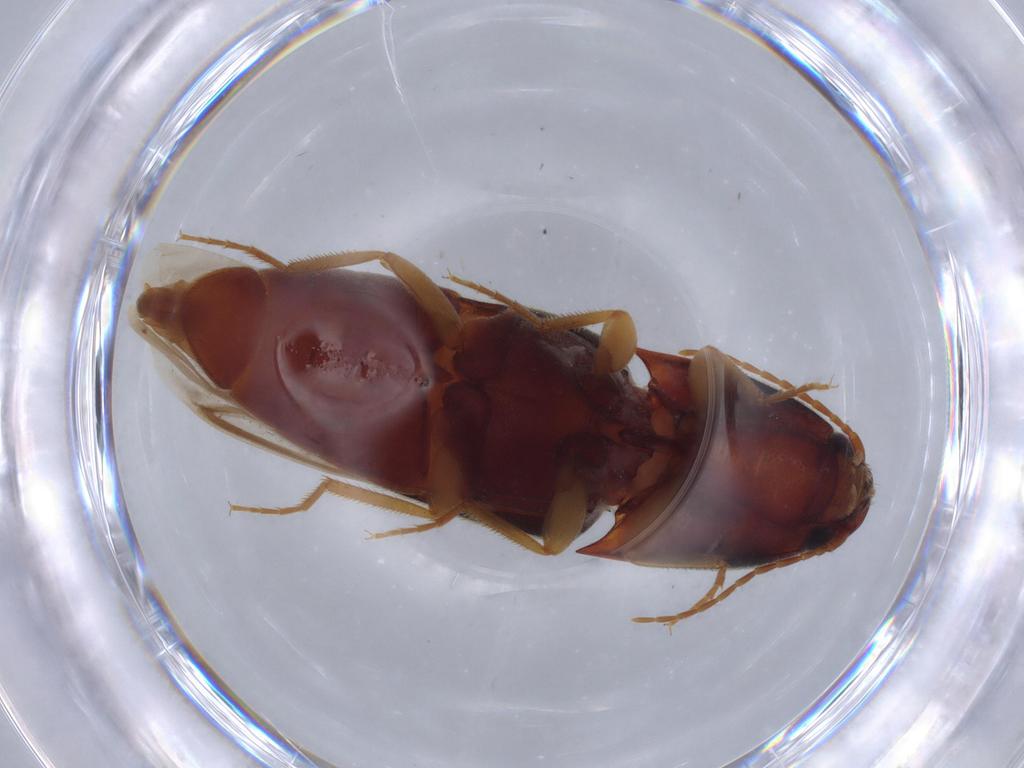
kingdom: Animalia
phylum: Arthropoda
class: Insecta
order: Coleoptera
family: Elateridae
